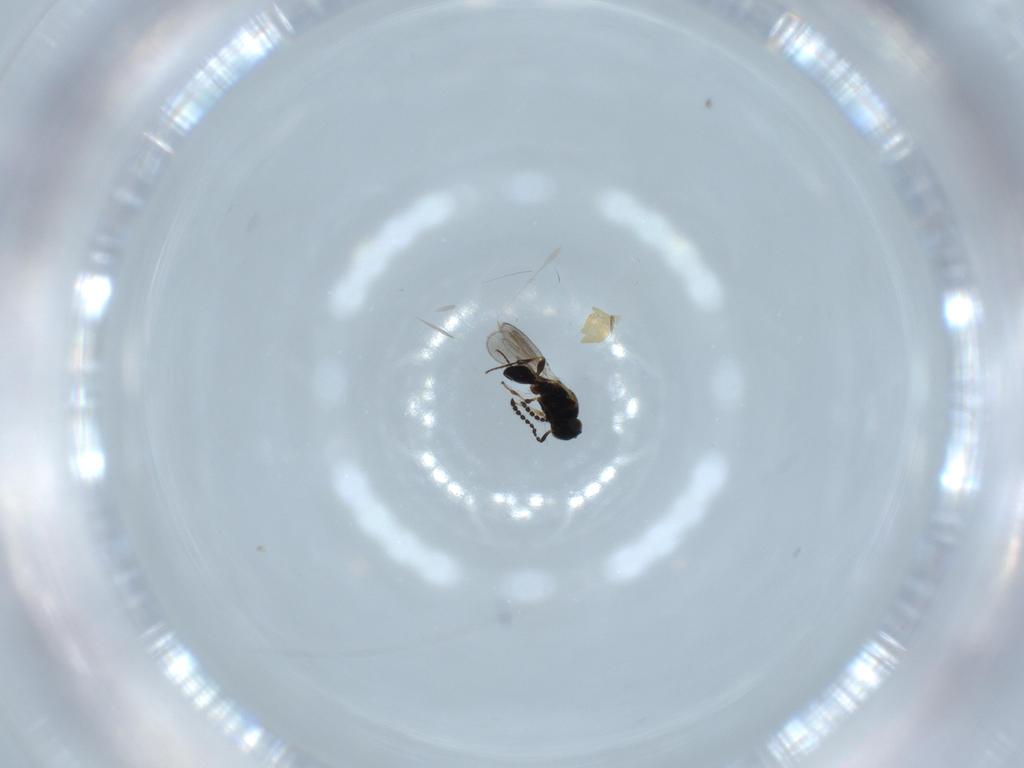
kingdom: Animalia
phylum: Arthropoda
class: Insecta
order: Hymenoptera
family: Platygastridae
